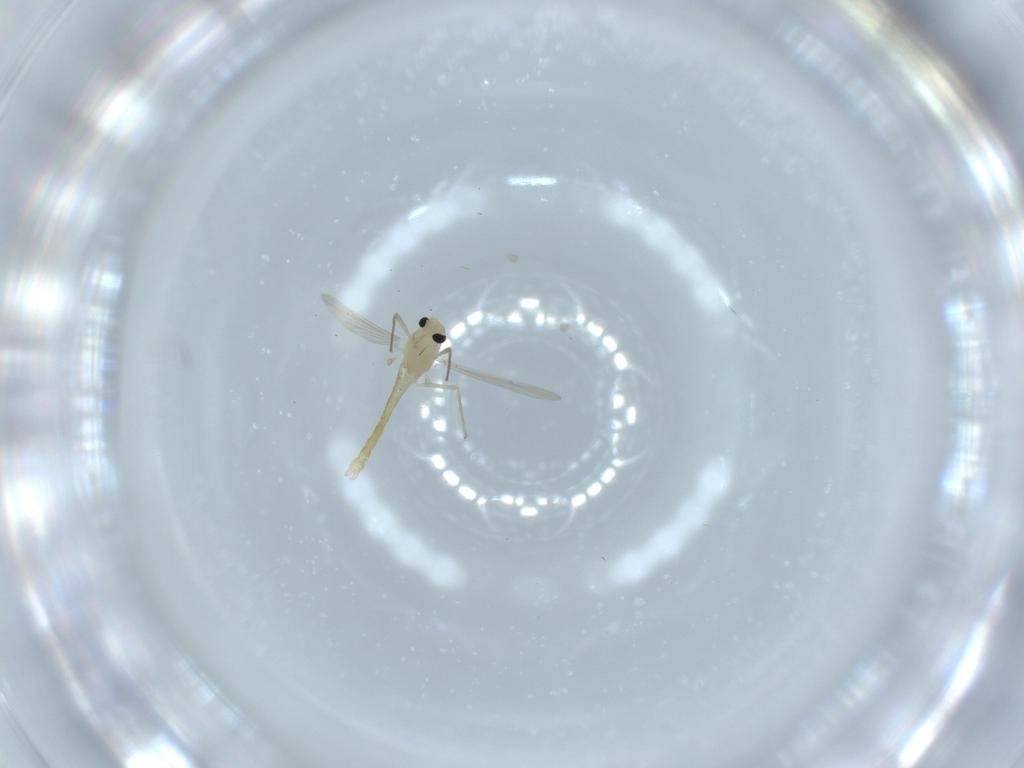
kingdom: Animalia
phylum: Arthropoda
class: Insecta
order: Diptera
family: Chironomidae
